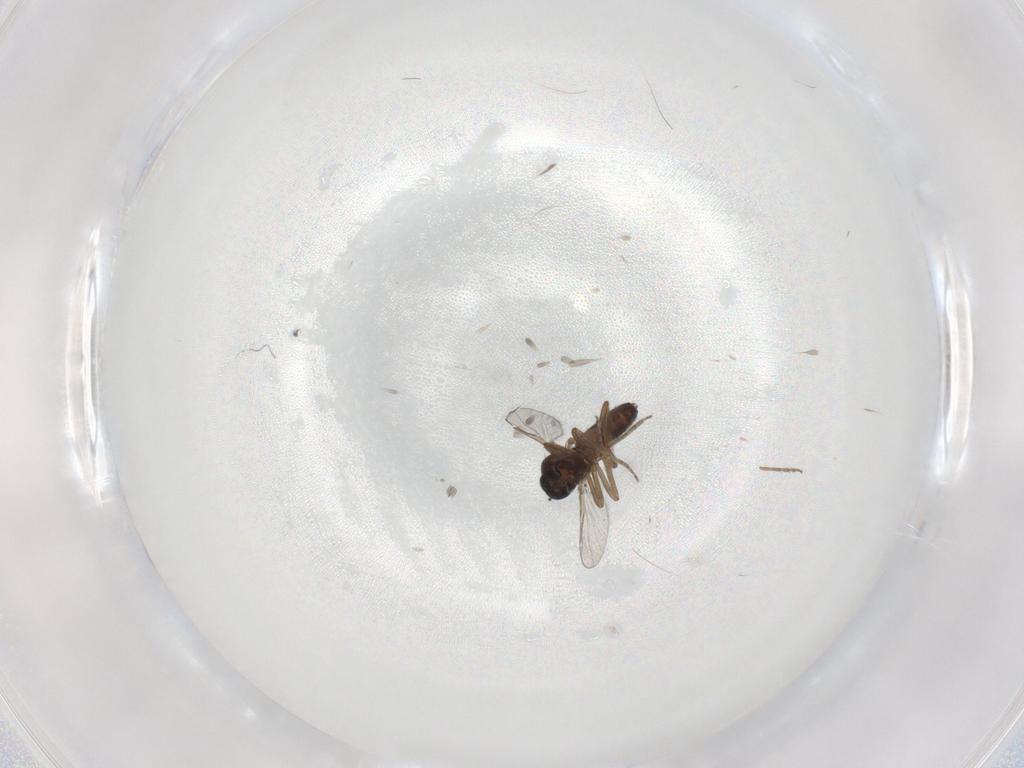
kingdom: Animalia
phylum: Arthropoda
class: Insecta
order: Diptera
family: Ceratopogonidae
